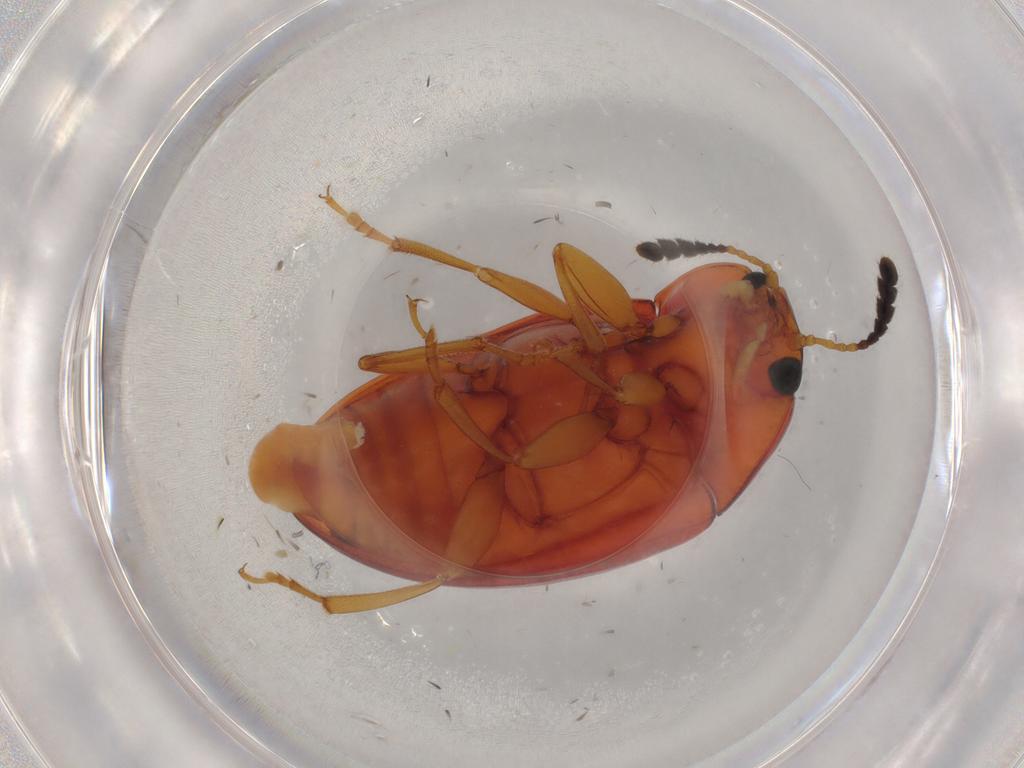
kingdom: Animalia
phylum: Arthropoda
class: Insecta
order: Coleoptera
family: Erotylidae
